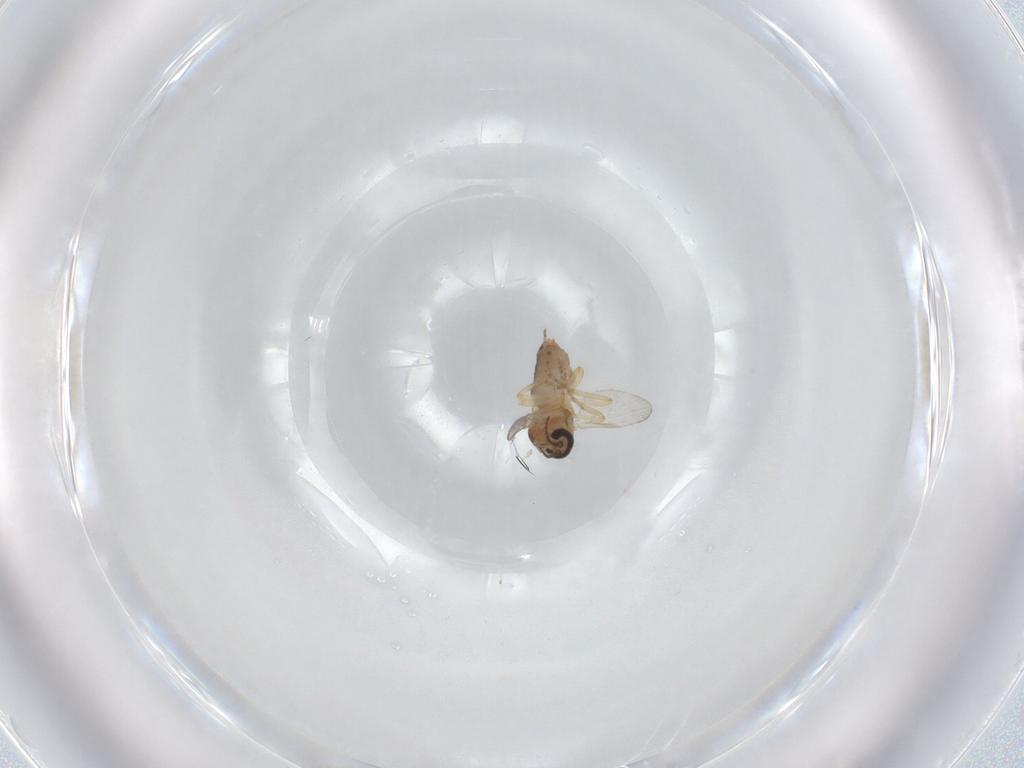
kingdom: Animalia
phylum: Arthropoda
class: Insecta
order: Diptera
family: Ceratopogonidae
